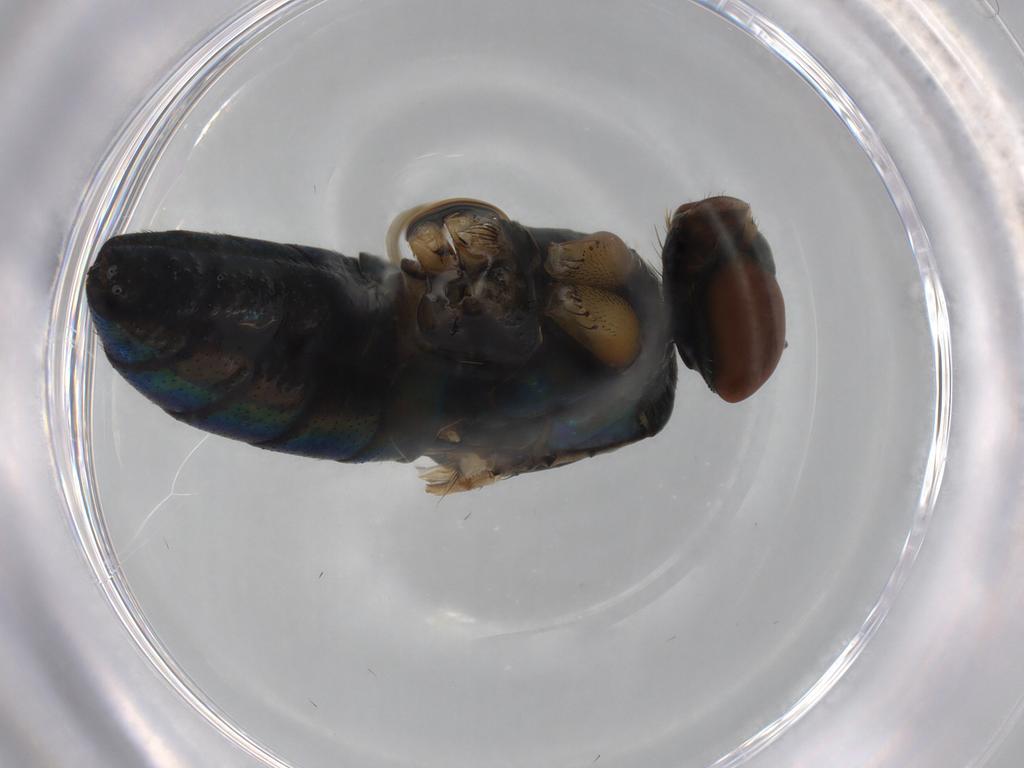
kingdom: Animalia
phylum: Arthropoda
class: Insecta
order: Diptera
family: Dolichopodidae
